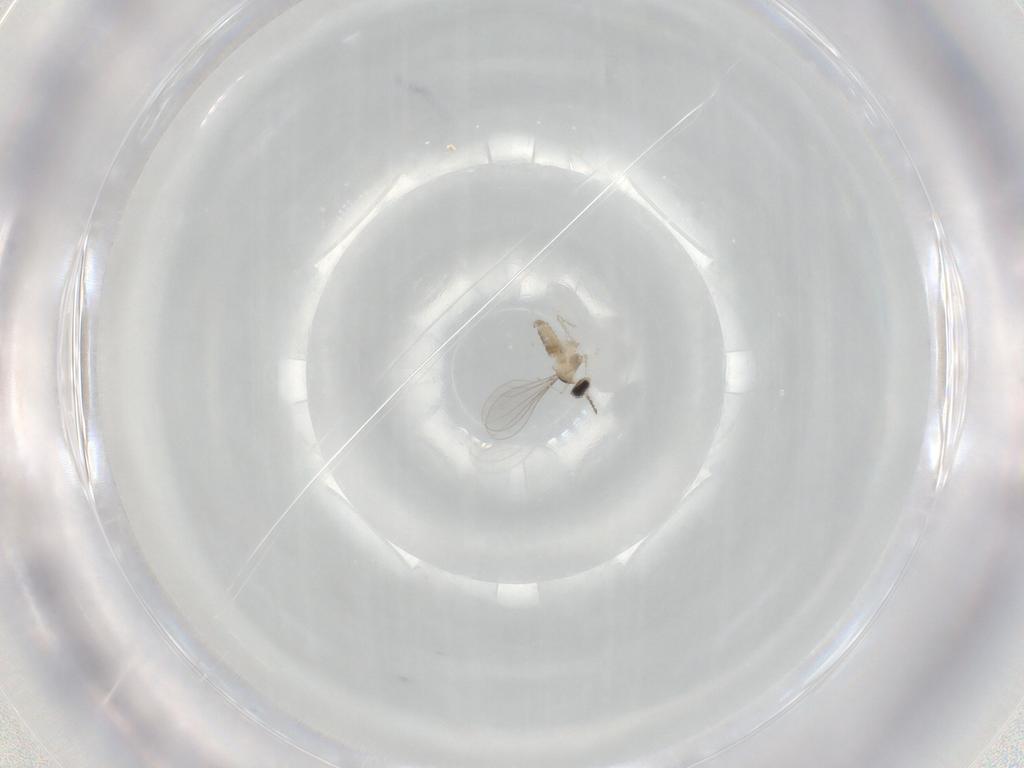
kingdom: Animalia
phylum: Arthropoda
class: Insecta
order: Diptera
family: Cecidomyiidae
